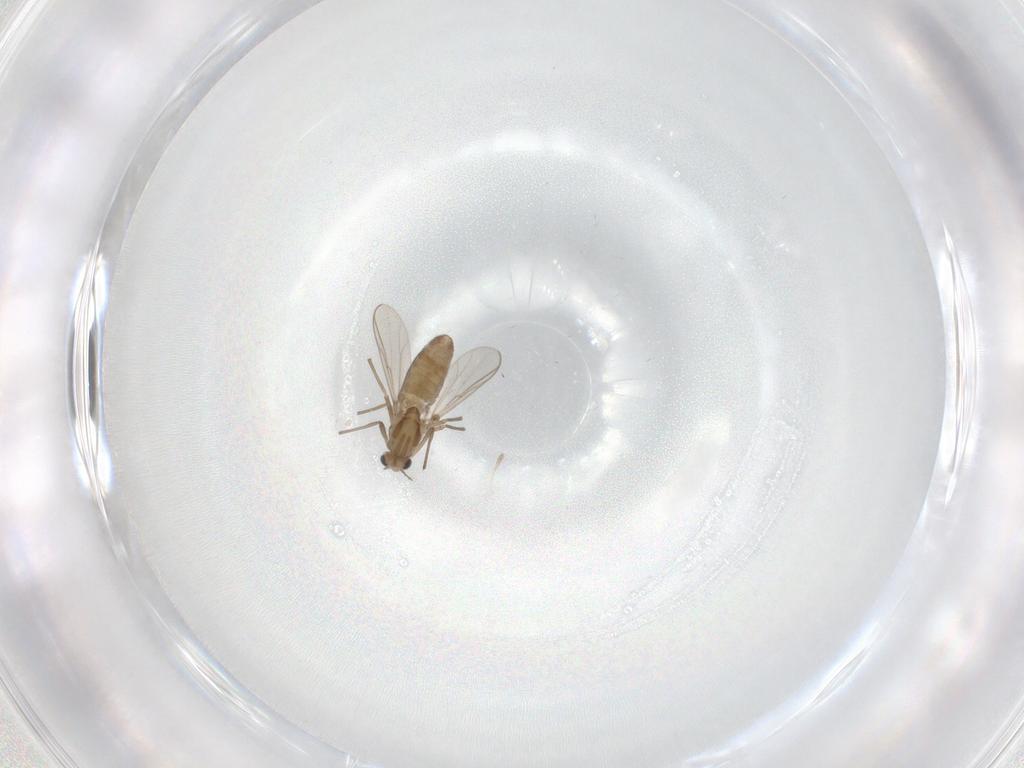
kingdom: Animalia
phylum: Arthropoda
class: Insecta
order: Diptera
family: Chironomidae
